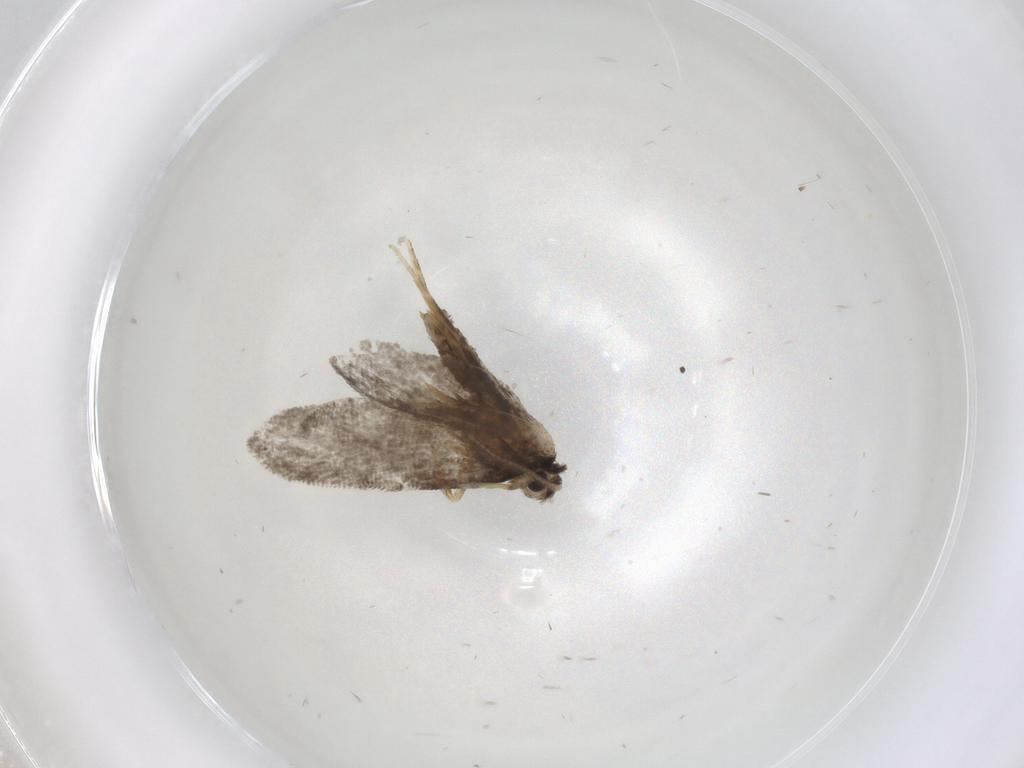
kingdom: Animalia
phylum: Arthropoda
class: Insecta
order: Lepidoptera
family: Psychidae
